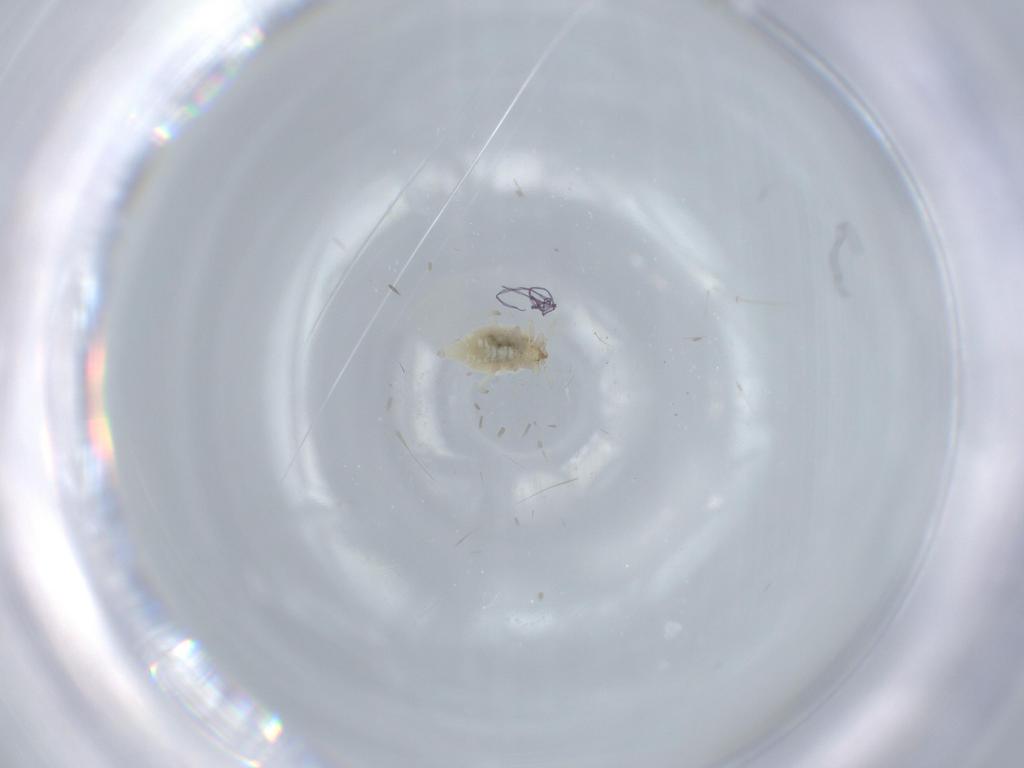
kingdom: Animalia
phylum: Arthropoda
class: Insecta
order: Neuroptera
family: Coniopterygidae
